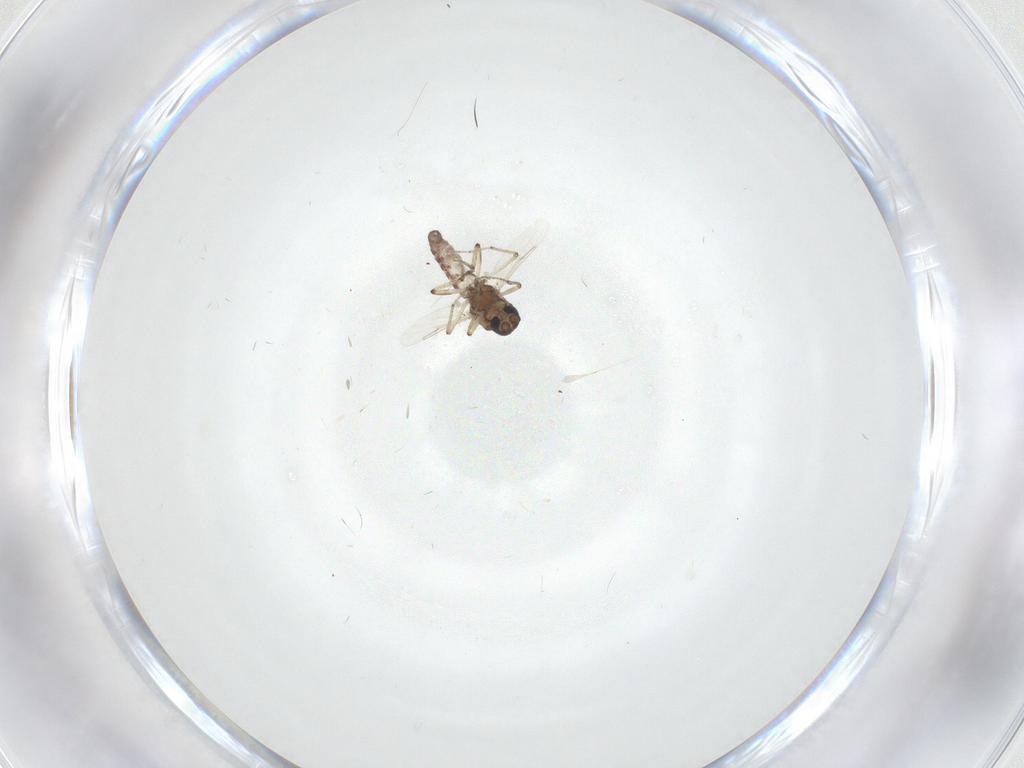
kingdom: Animalia
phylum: Arthropoda
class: Insecta
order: Diptera
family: Ceratopogonidae
